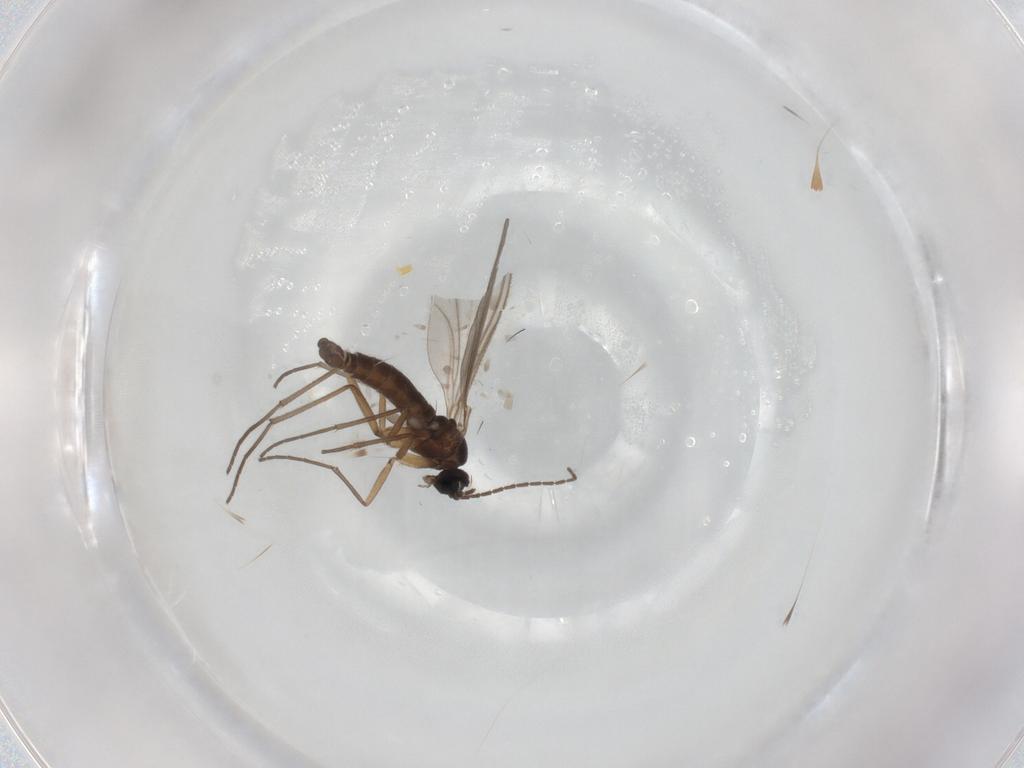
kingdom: Animalia
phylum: Arthropoda
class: Insecta
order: Diptera
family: Sciaridae
